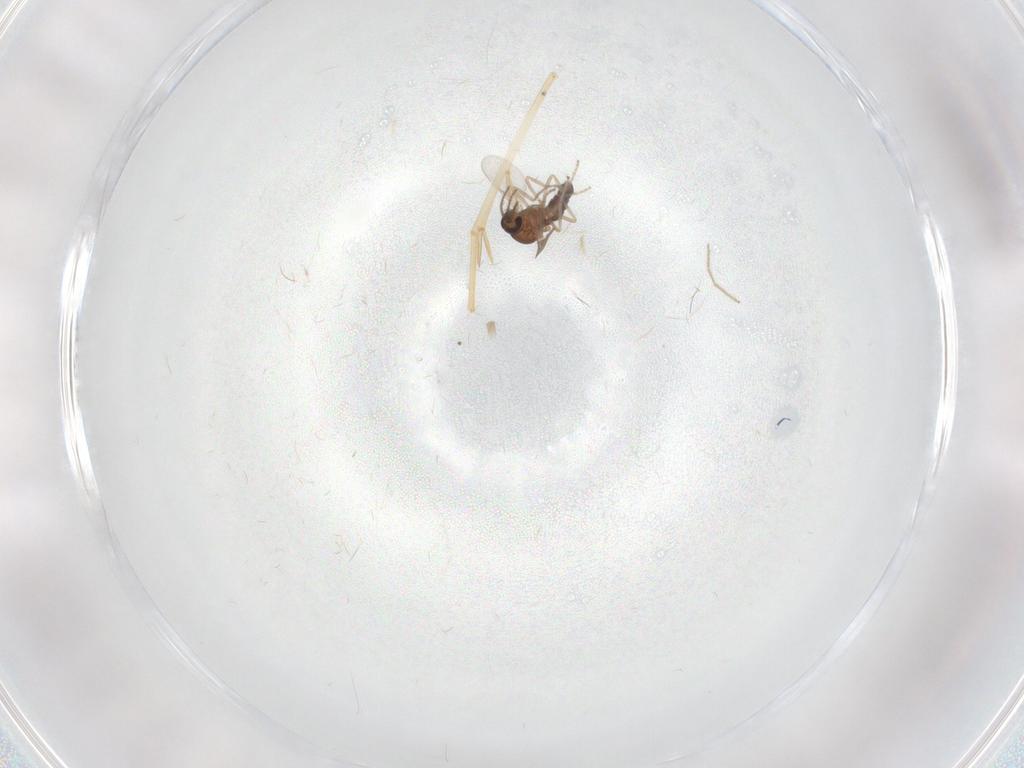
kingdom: Animalia
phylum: Arthropoda
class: Insecta
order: Diptera
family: Ceratopogonidae
